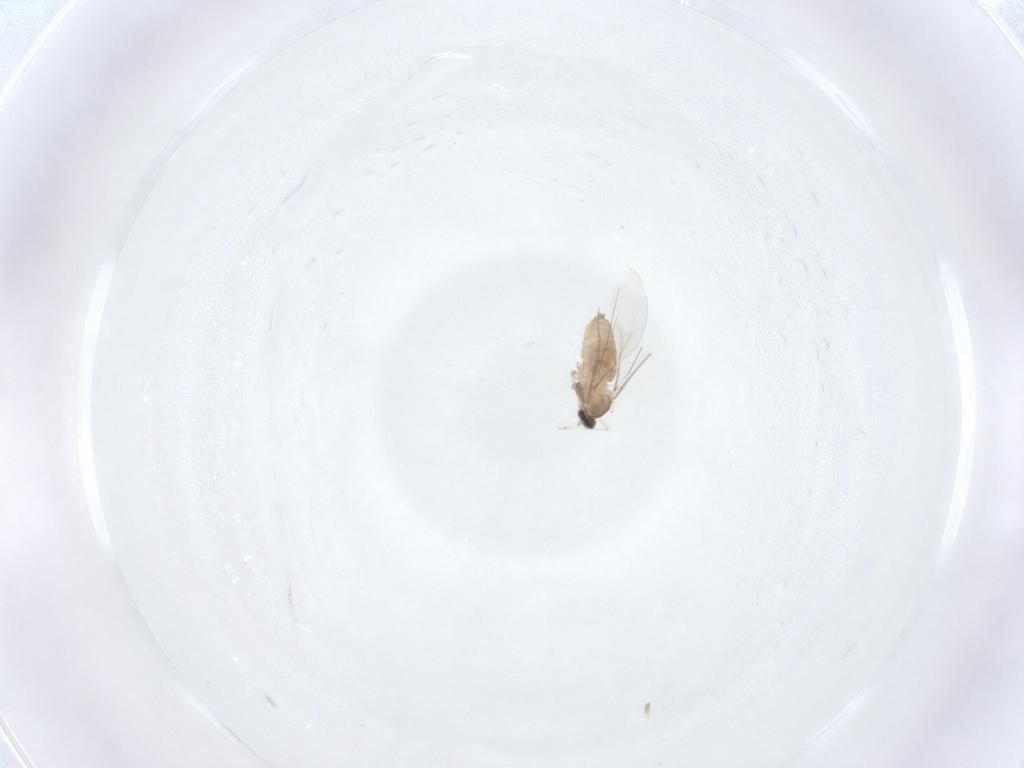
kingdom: Animalia
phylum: Arthropoda
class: Insecta
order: Diptera
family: Cecidomyiidae
